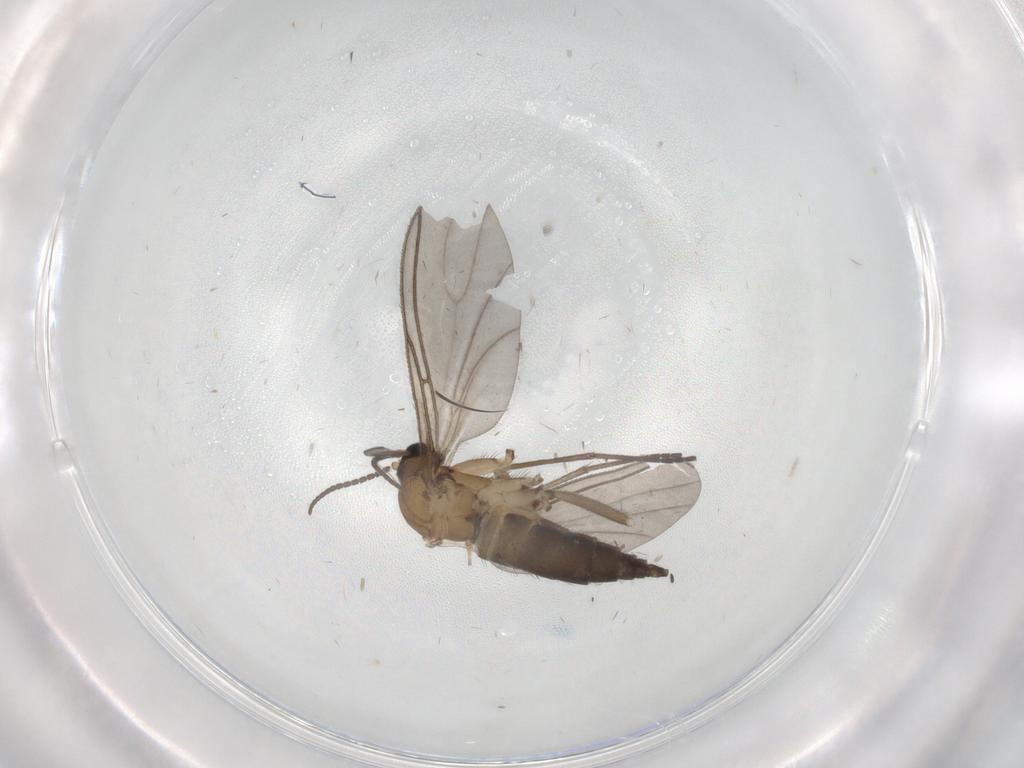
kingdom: Animalia
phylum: Arthropoda
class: Insecta
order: Diptera
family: Sciaridae
